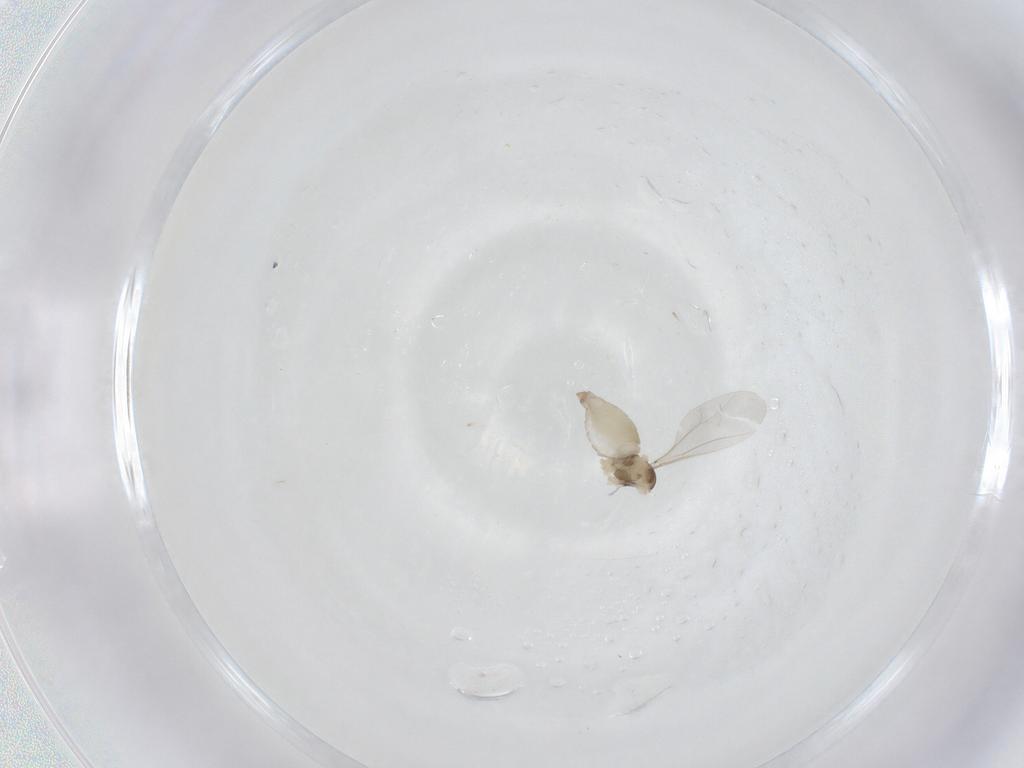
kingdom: Animalia
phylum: Arthropoda
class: Insecta
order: Diptera
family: Cecidomyiidae
